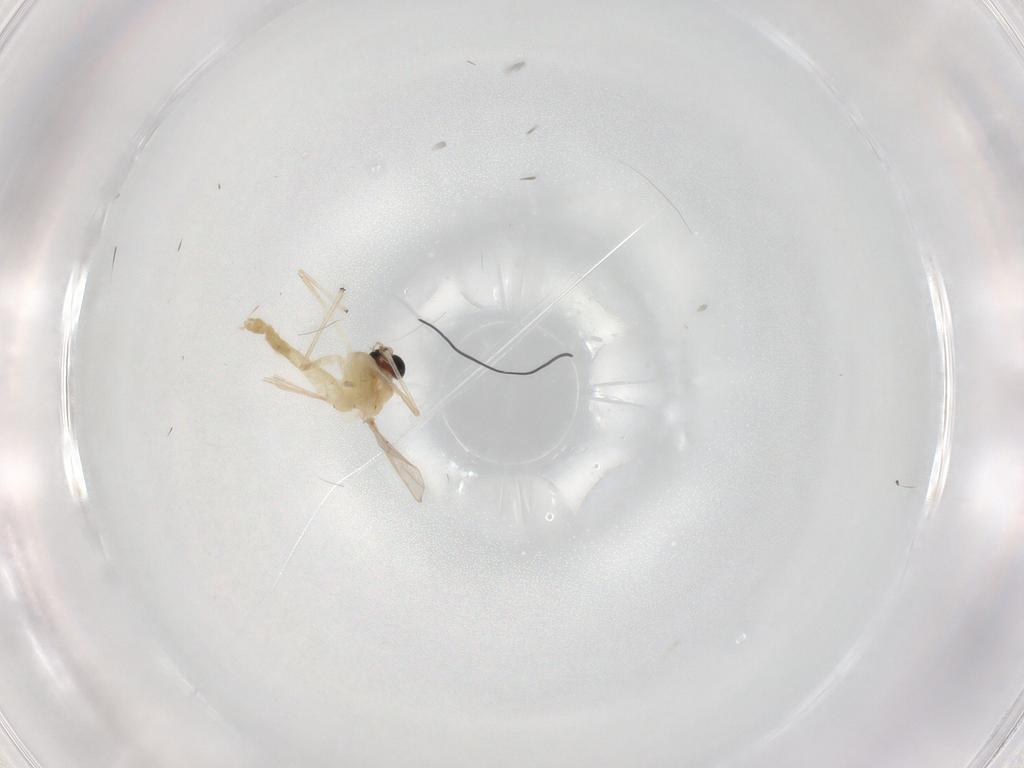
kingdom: Animalia
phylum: Arthropoda
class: Insecta
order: Diptera
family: Chironomidae
